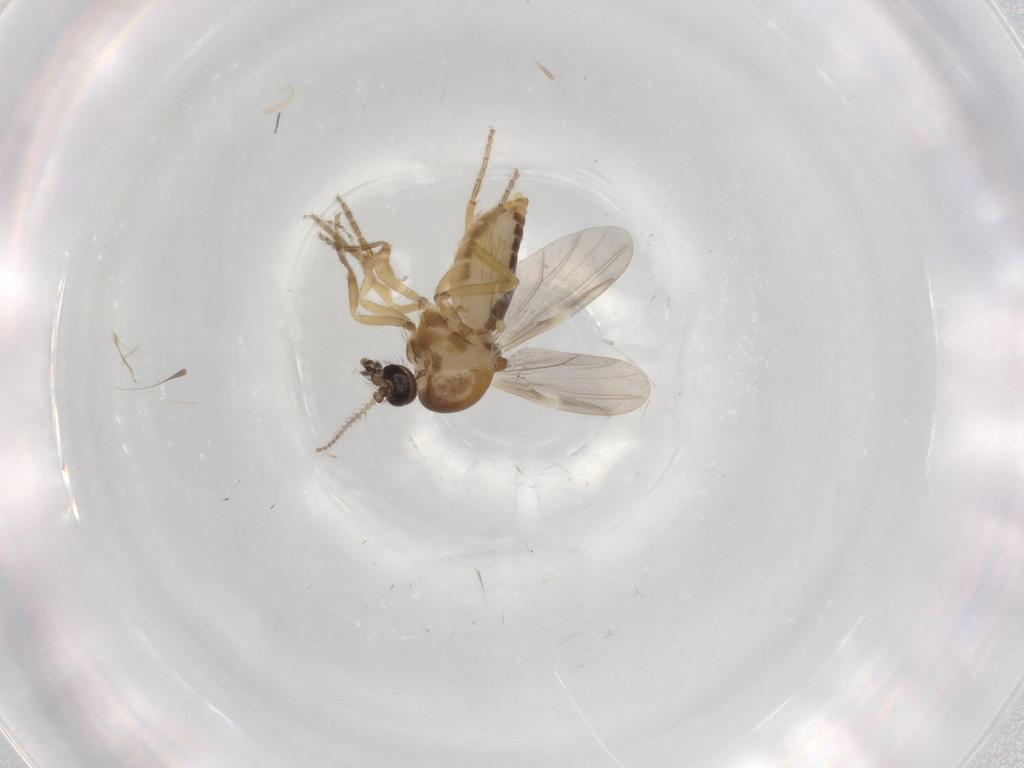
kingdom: Animalia
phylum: Arthropoda
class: Insecta
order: Diptera
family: Ceratopogonidae
